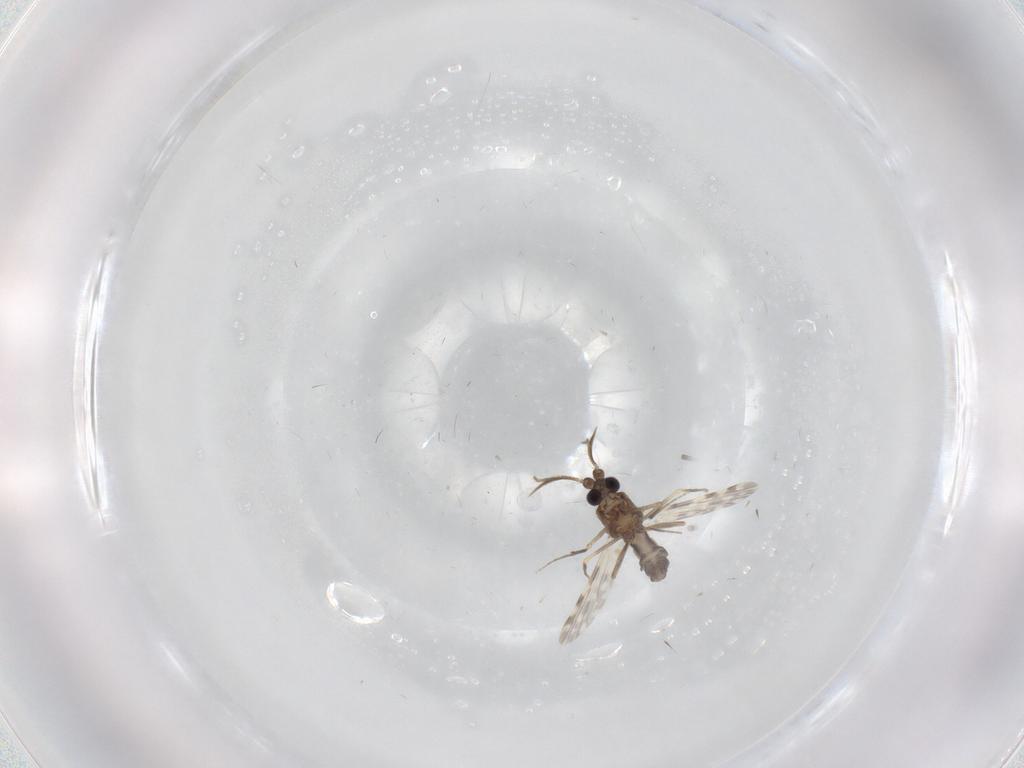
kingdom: Animalia
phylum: Arthropoda
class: Insecta
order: Diptera
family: Ceratopogonidae
